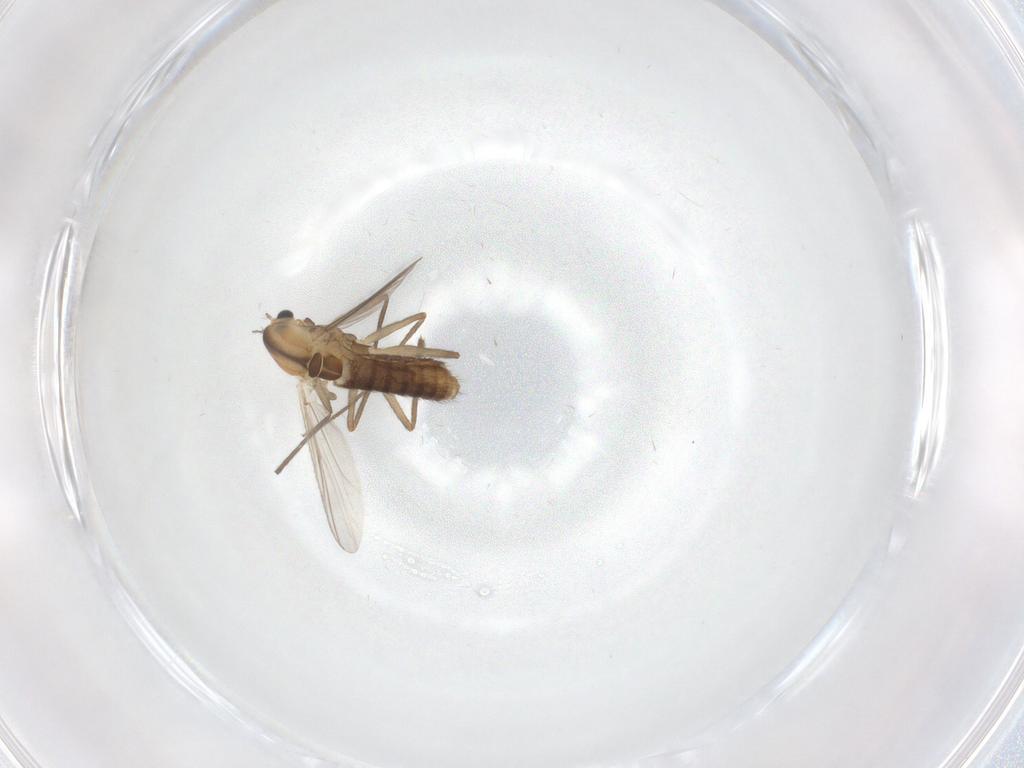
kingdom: Animalia
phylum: Arthropoda
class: Insecta
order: Diptera
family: Chironomidae
